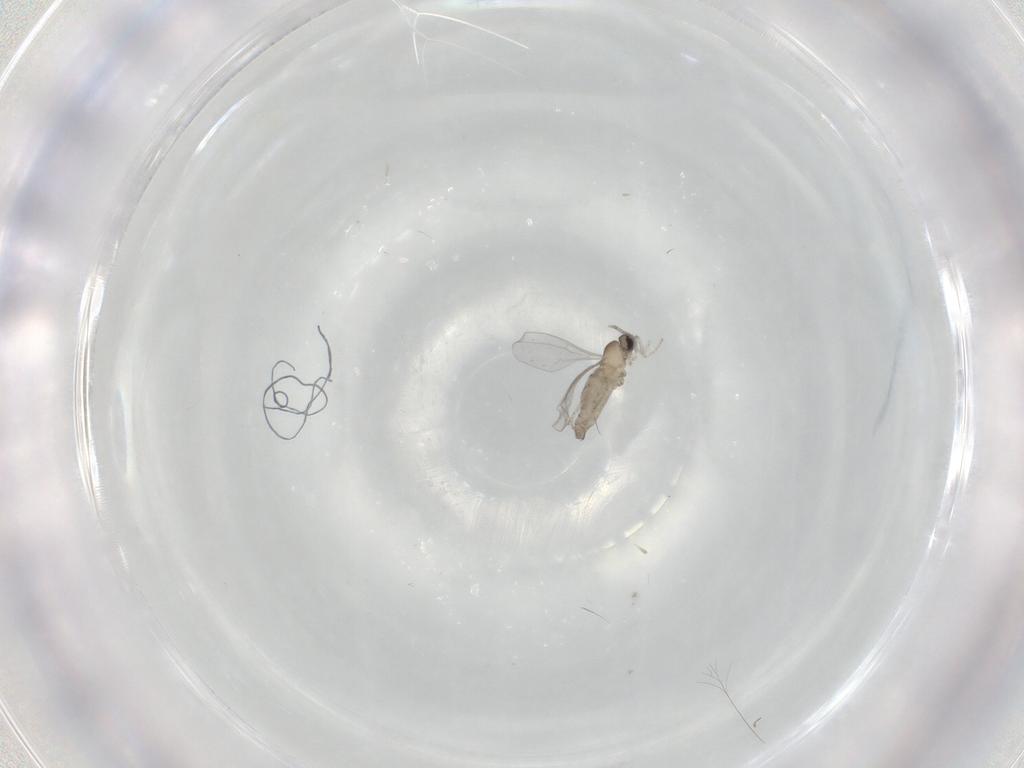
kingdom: Animalia
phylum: Arthropoda
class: Insecta
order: Diptera
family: Cecidomyiidae
